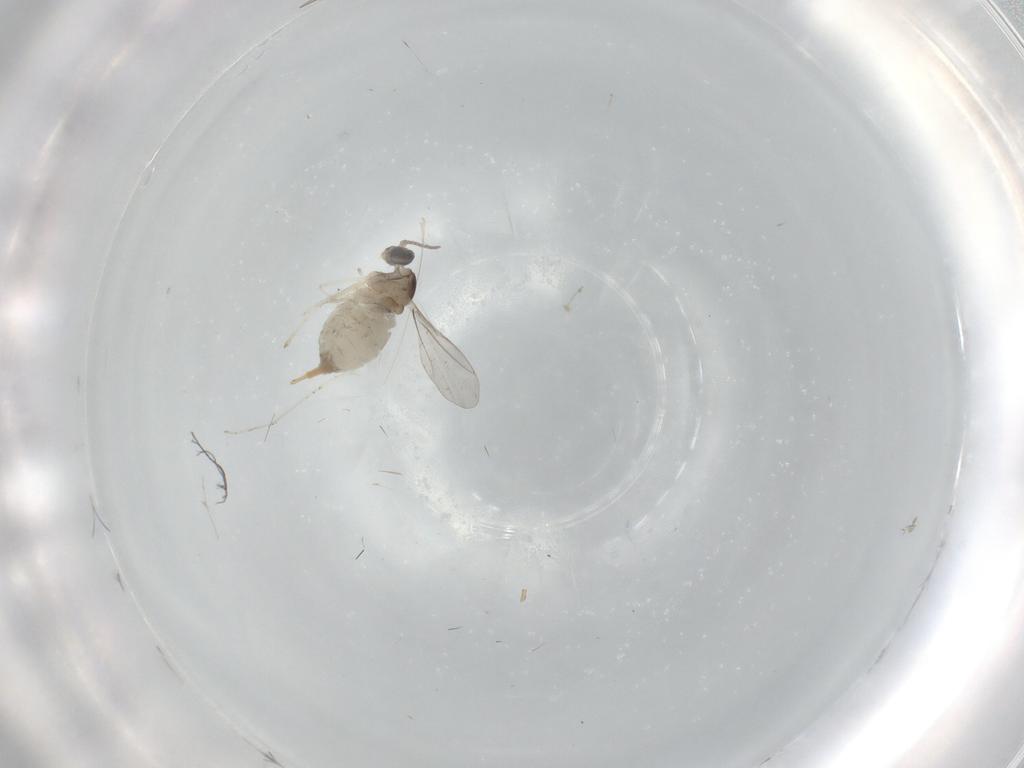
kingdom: Animalia
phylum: Arthropoda
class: Insecta
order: Diptera
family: Cecidomyiidae
